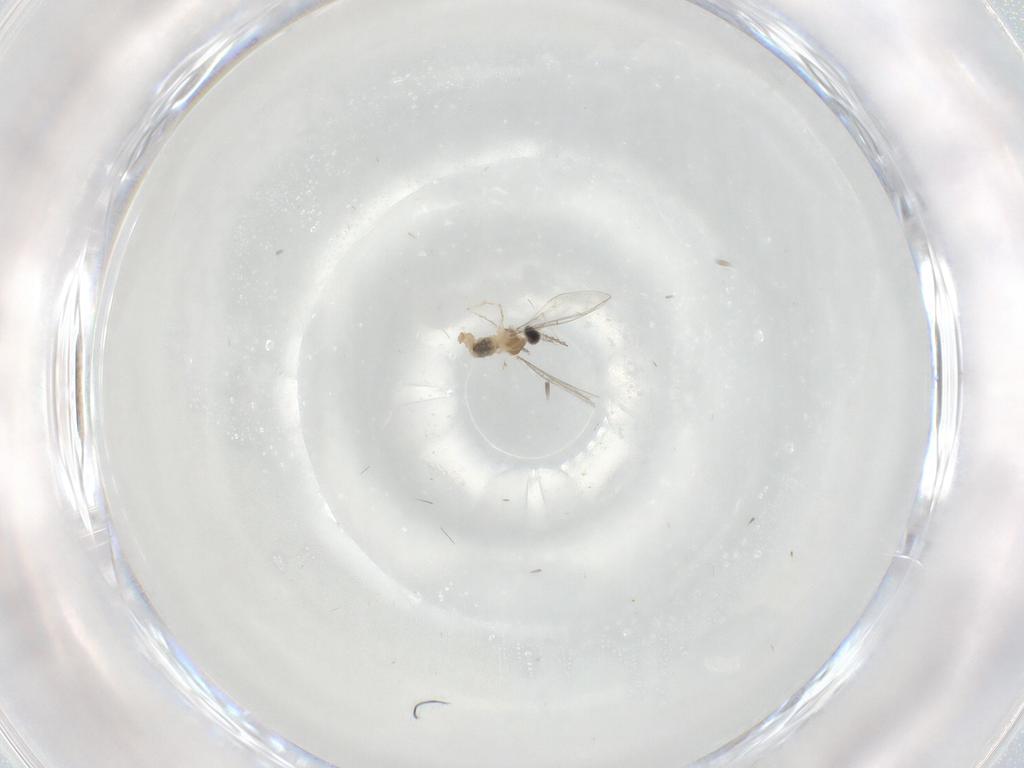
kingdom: Animalia
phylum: Arthropoda
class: Insecta
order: Diptera
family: Cecidomyiidae
